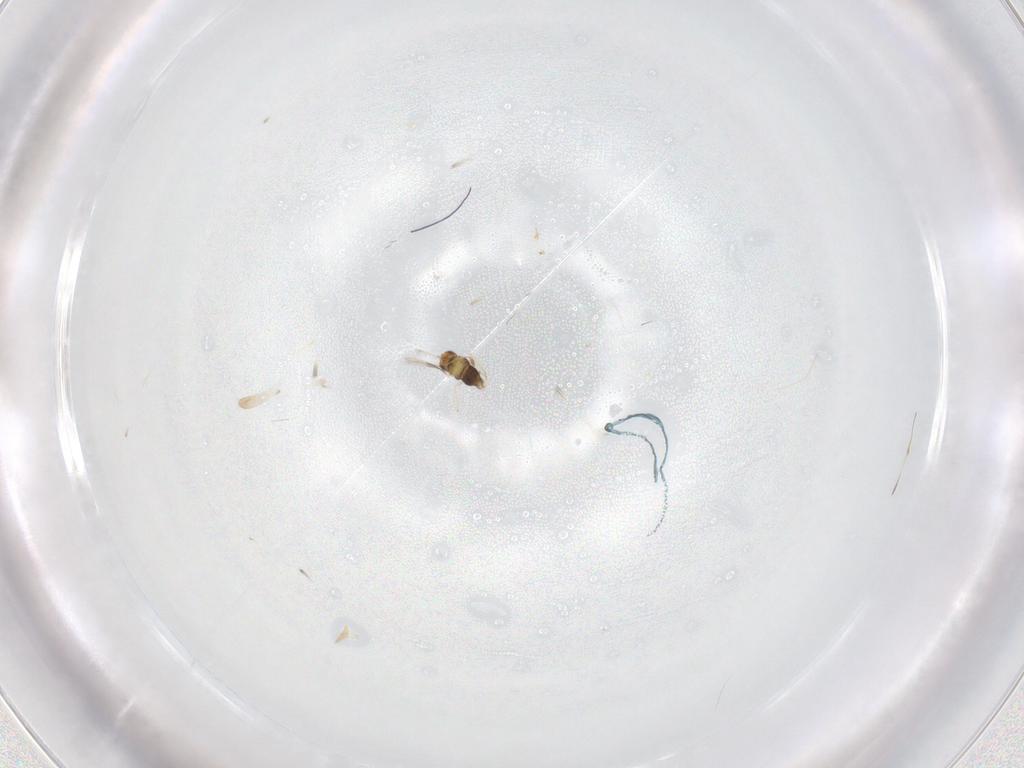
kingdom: Animalia
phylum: Arthropoda
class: Insecta
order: Hymenoptera
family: Aphelinidae
